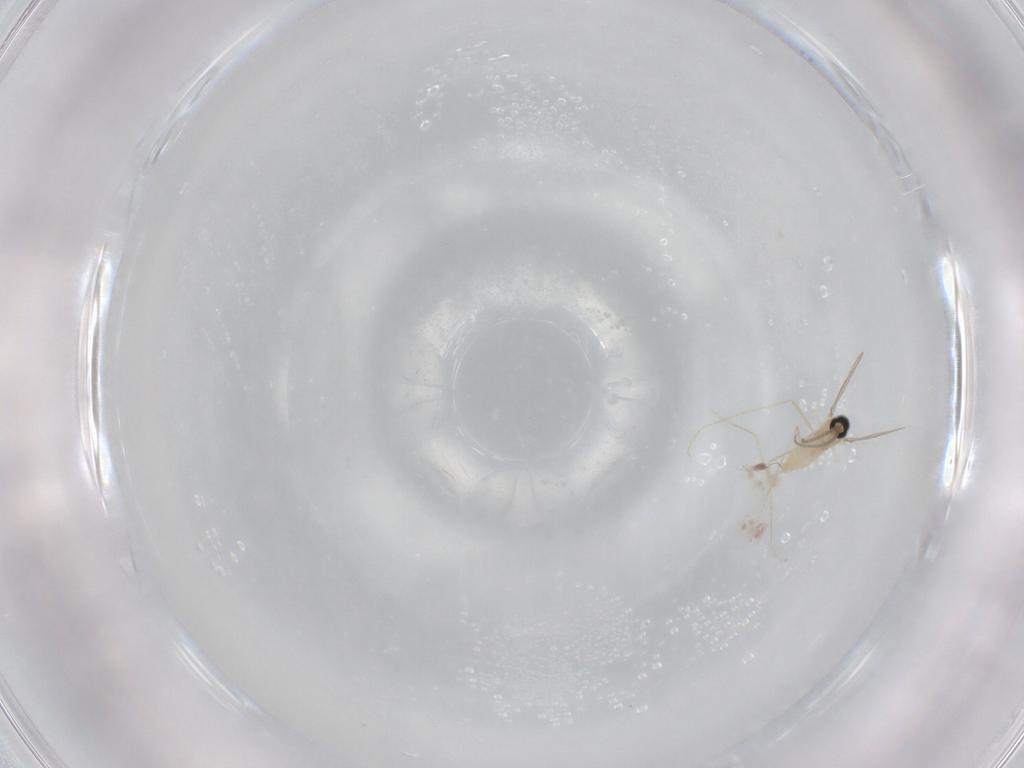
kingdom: Animalia
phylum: Arthropoda
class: Insecta
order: Diptera
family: Cecidomyiidae
